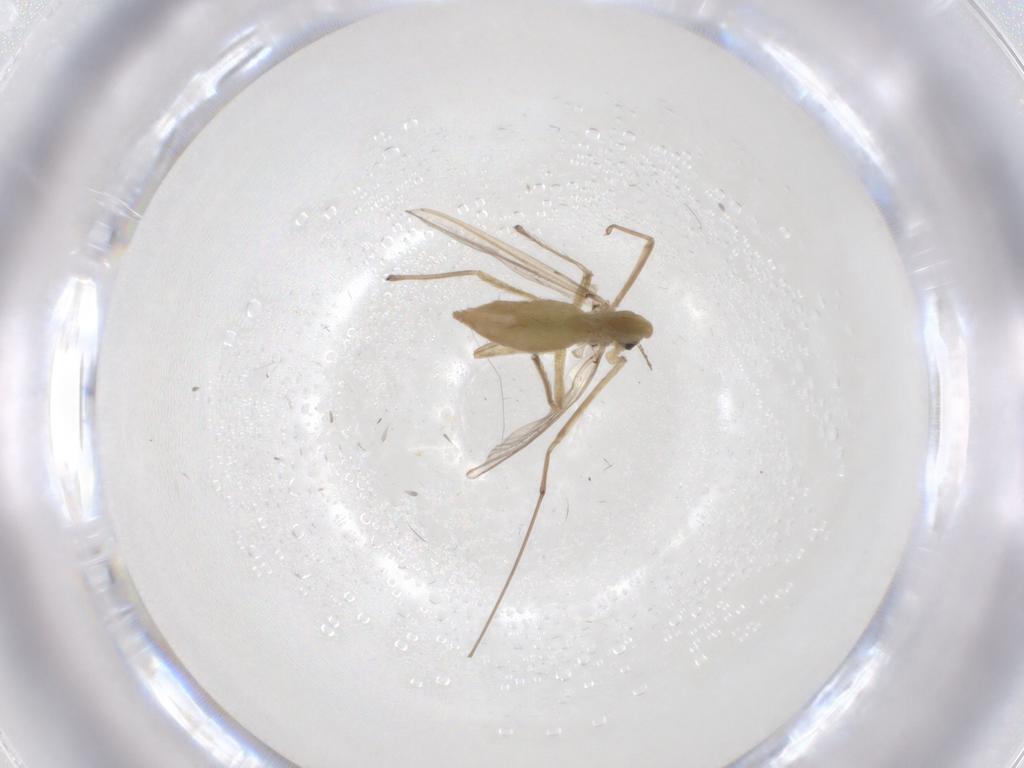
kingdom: Animalia
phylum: Arthropoda
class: Insecta
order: Diptera
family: Chironomidae
